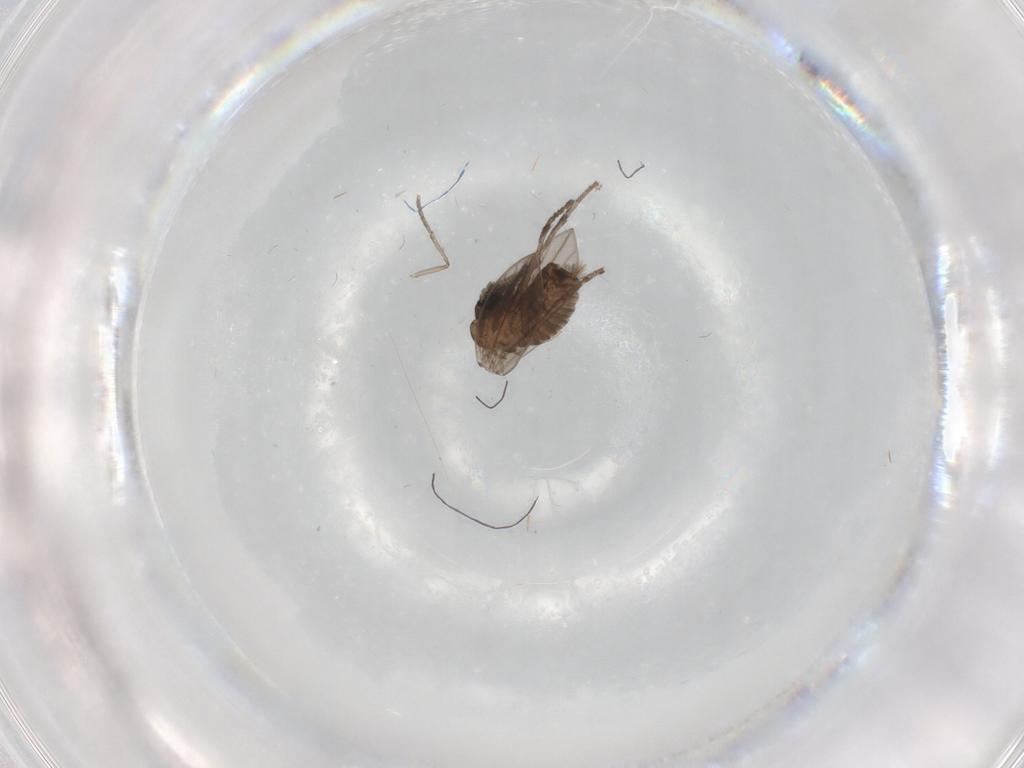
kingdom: Animalia
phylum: Arthropoda
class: Insecta
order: Diptera
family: Psychodidae
